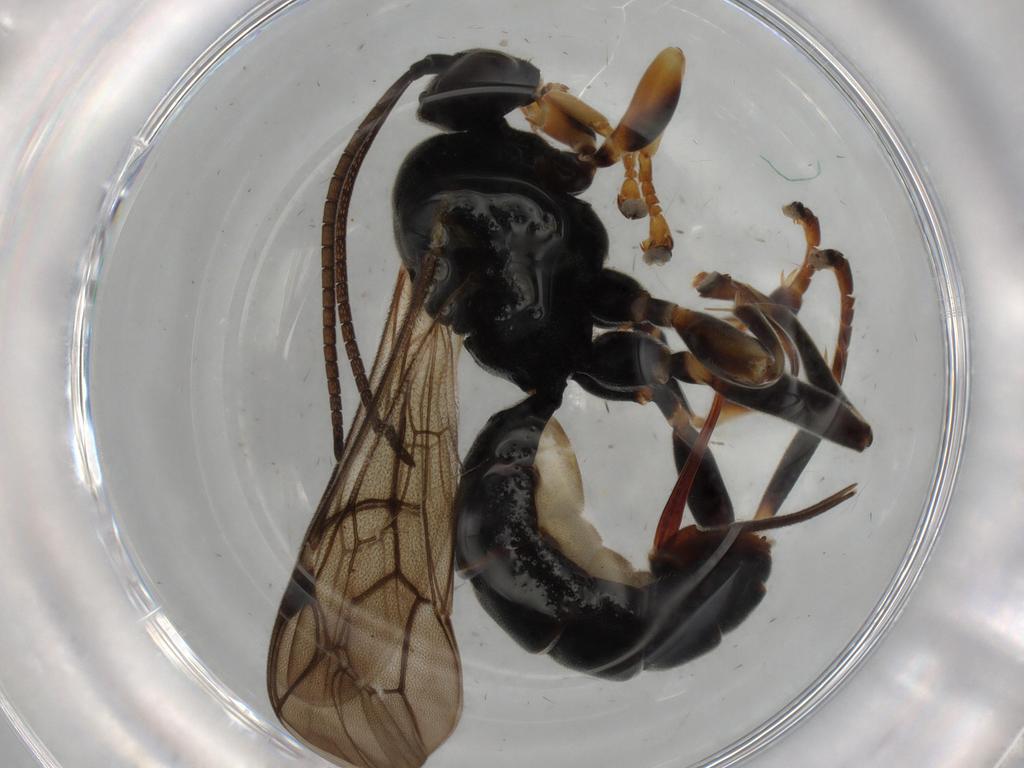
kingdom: Animalia
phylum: Arthropoda
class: Insecta
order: Hymenoptera
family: Ichneumonidae
